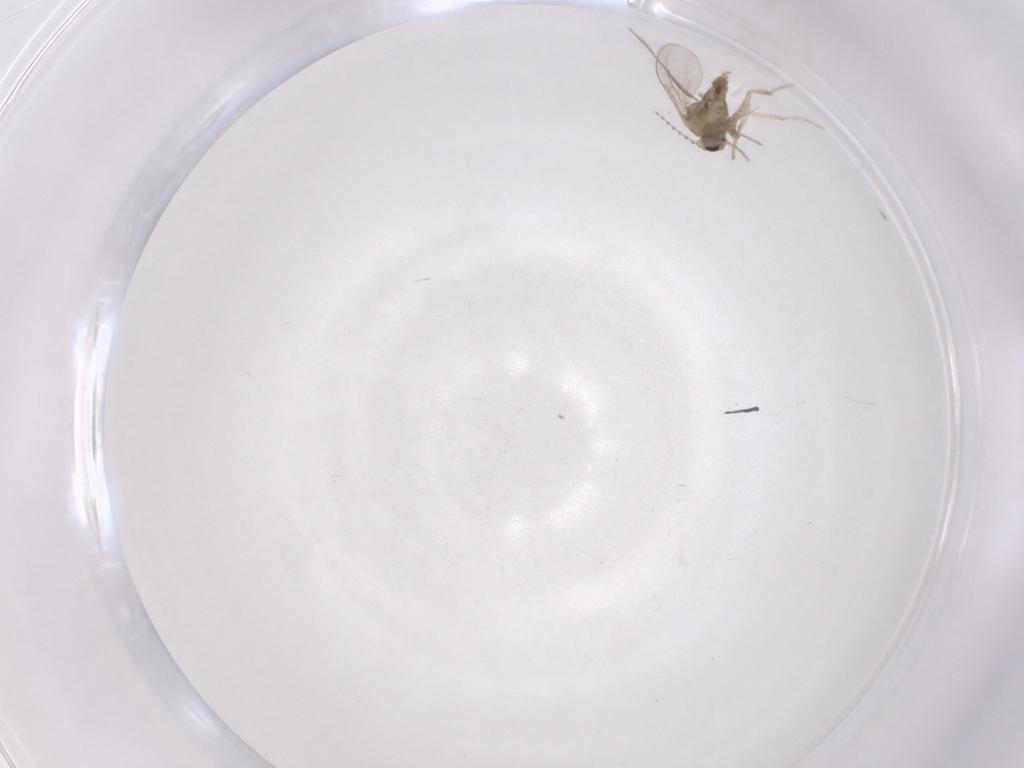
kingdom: Animalia
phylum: Arthropoda
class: Insecta
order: Diptera
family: Cecidomyiidae
